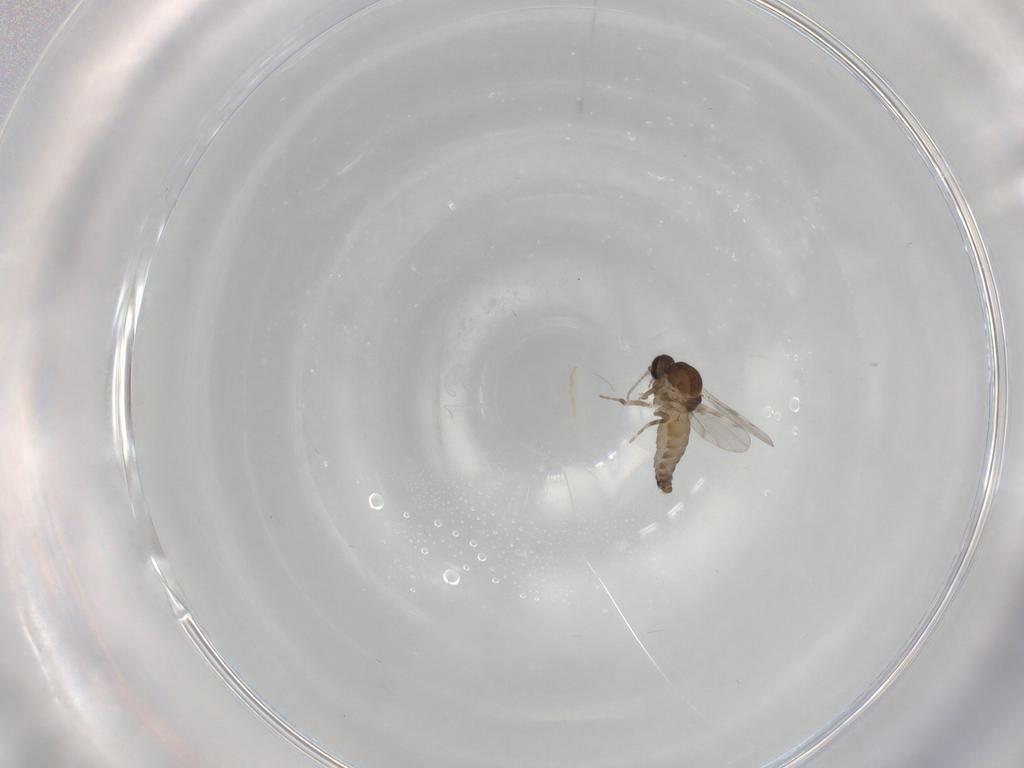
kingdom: Animalia
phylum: Arthropoda
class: Insecta
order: Diptera
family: Ceratopogonidae
